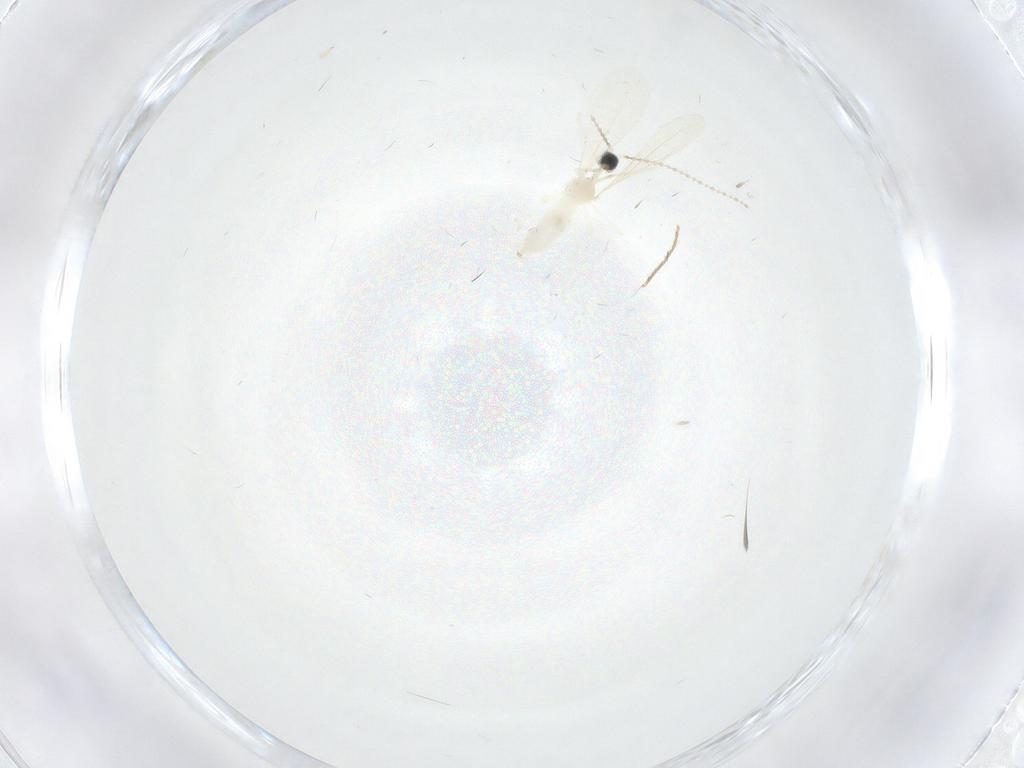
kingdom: Animalia
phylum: Arthropoda
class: Insecta
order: Diptera
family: Cecidomyiidae
